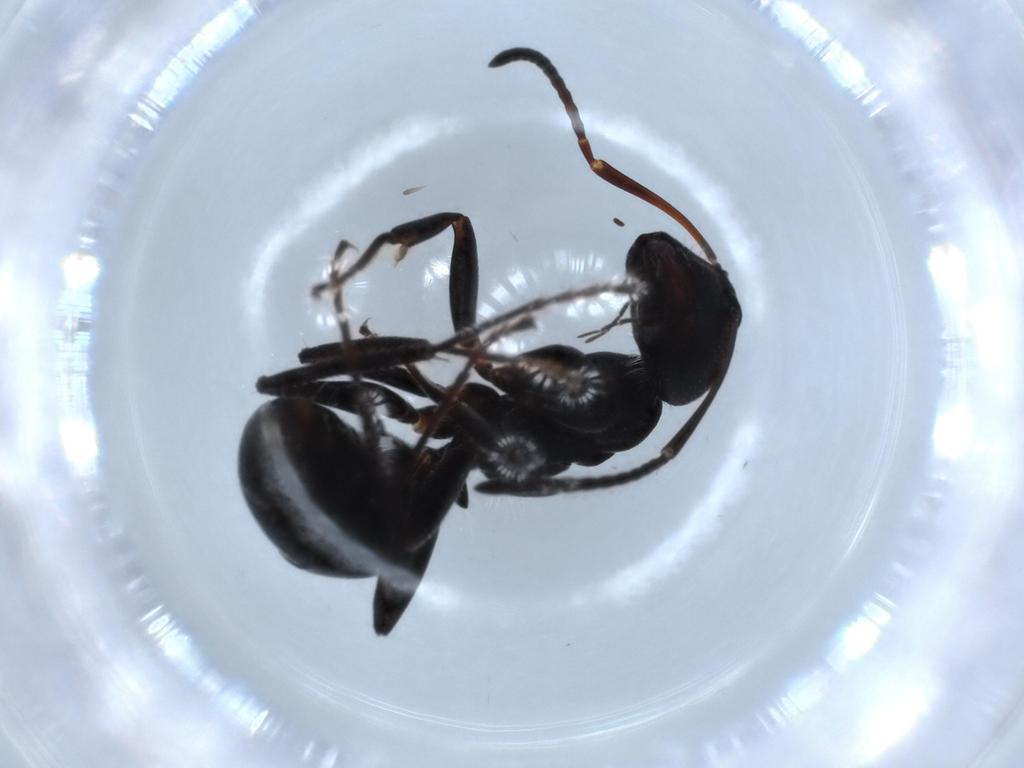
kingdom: Animalia
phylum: Arthropoda
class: Insecta
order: Hymenoptera
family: Formicidae
